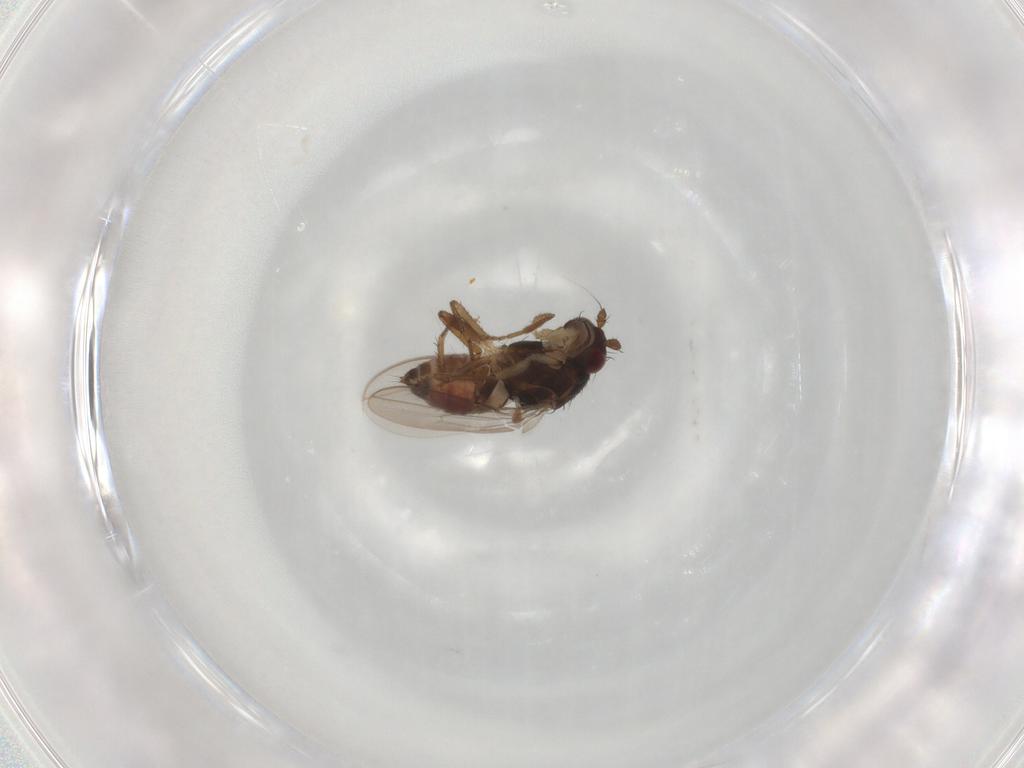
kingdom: Animalia
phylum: Arthropoda
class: Insecta
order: Diptera
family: Sphaeroceridae
